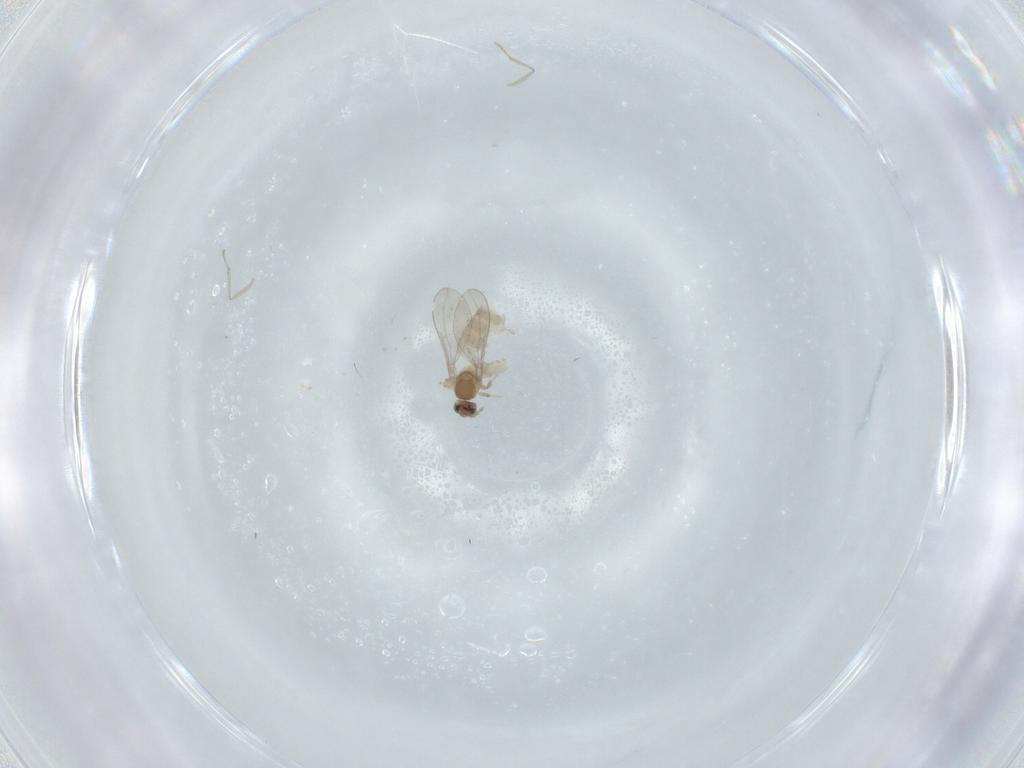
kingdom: Animalia
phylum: Arthropoda
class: Insecta
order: Diptera
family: Cecidomyiidae
